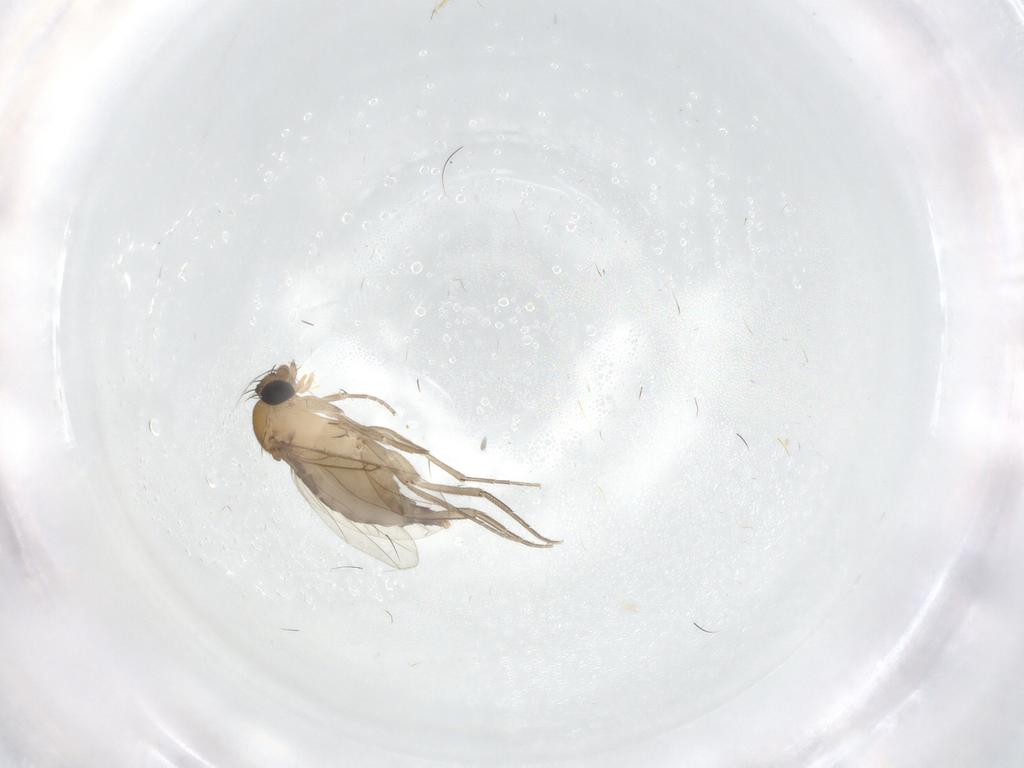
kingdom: Animalia
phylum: Arthropoda
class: Insecta
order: Diptera
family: Phoridae
